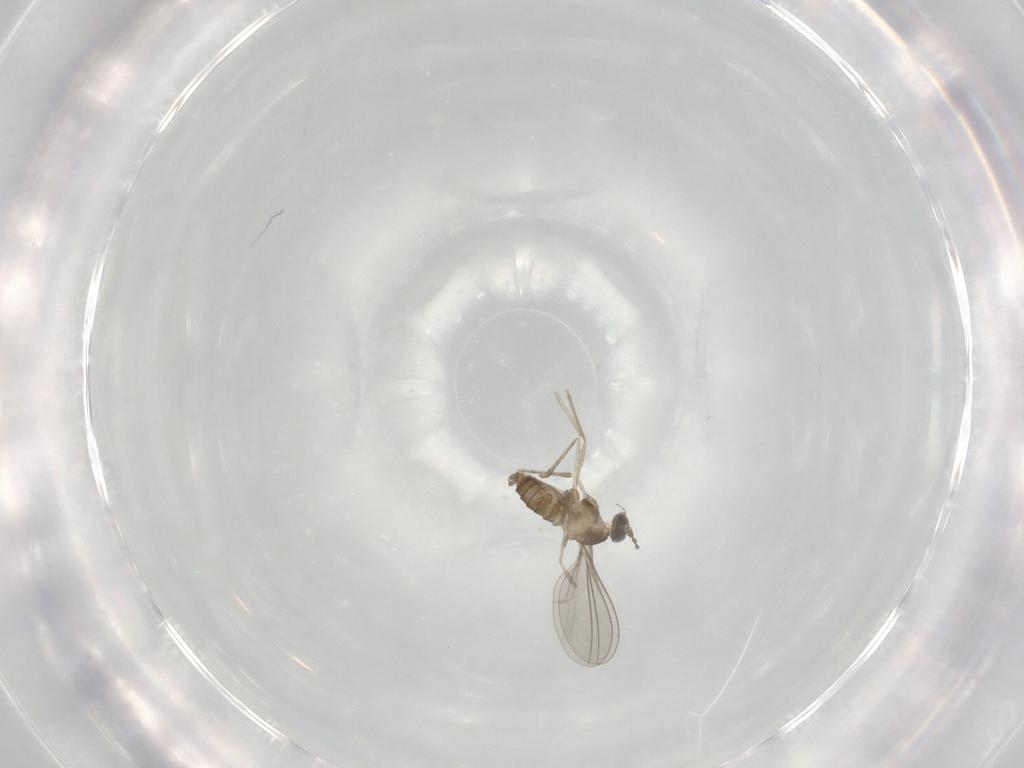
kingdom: Animalia
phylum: Arthropoda
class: Insecta
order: Diptera
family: Cecidomyiidae
